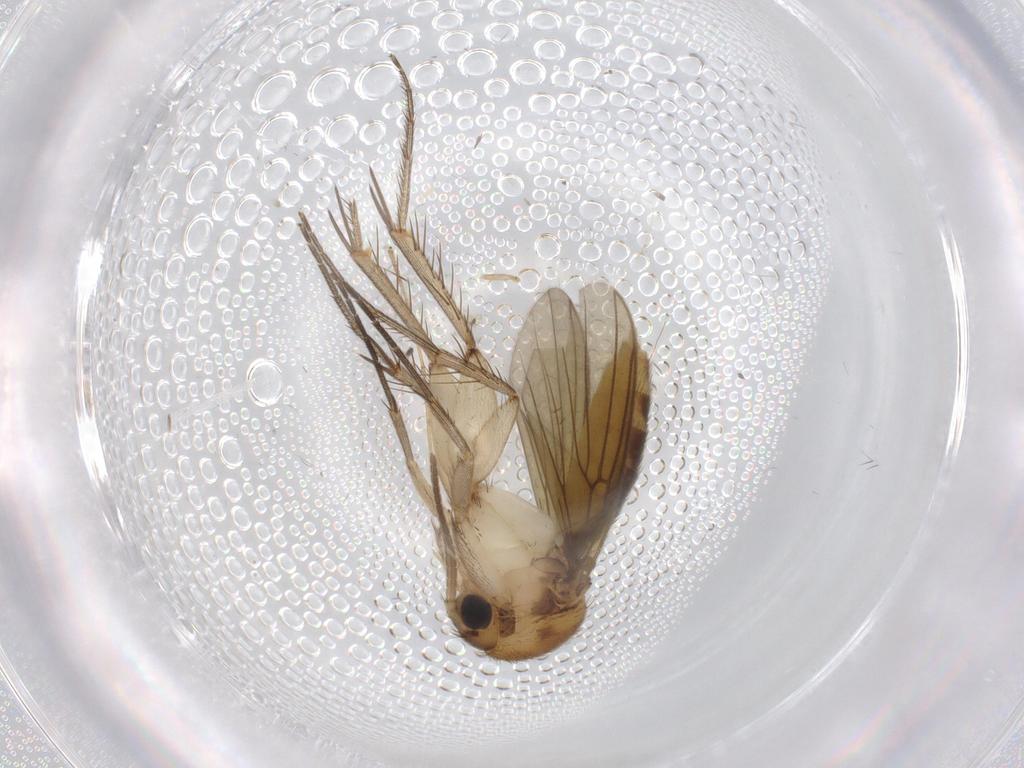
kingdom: Animalia
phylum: Arthropoda
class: Insecta
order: Diptera
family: Mycetophilidae
